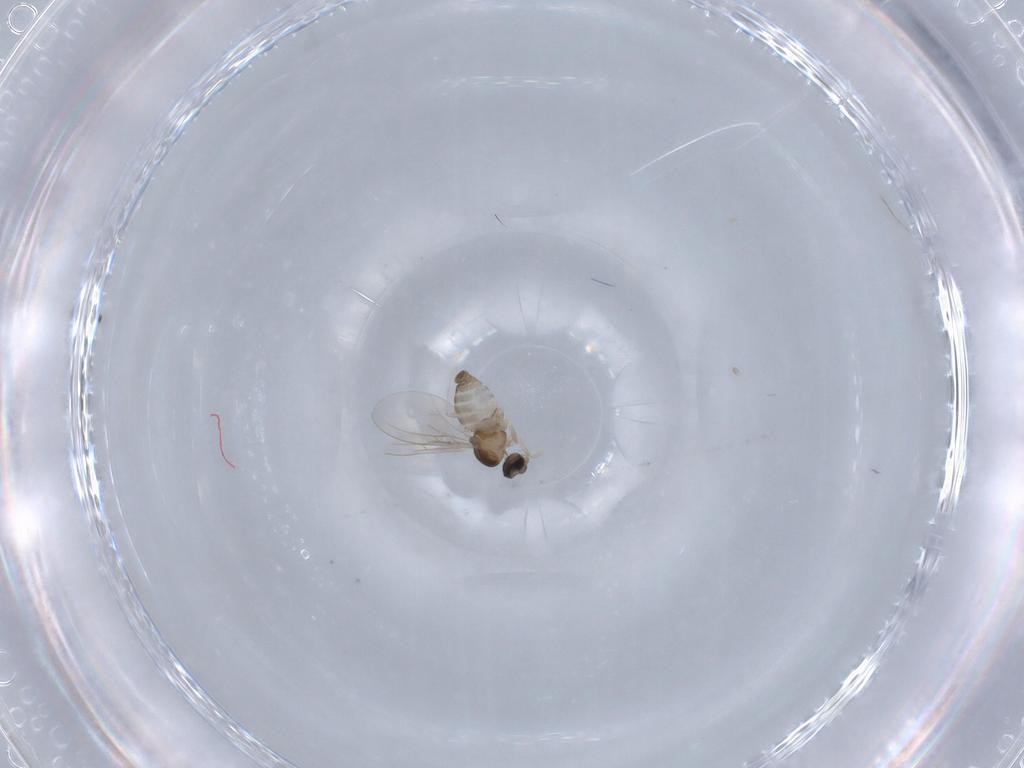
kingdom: Animalia
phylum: Arthropoda
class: Insecta
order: Diptera
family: Cecidomyiidae
